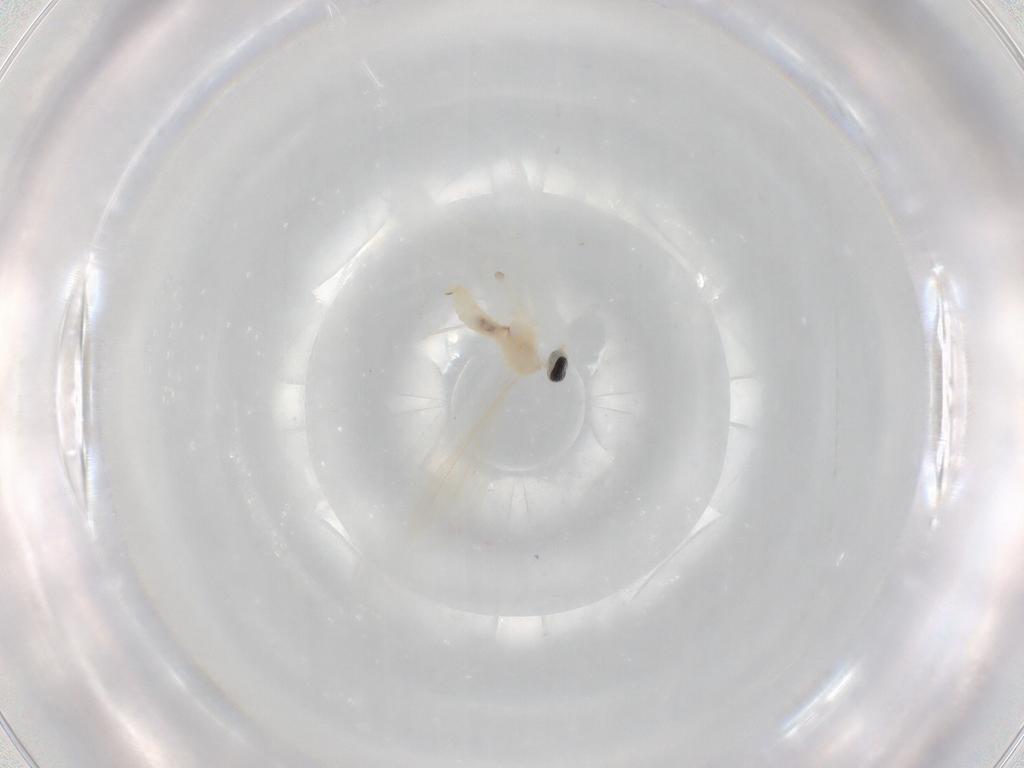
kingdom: Animalia
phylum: Arthropoda
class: Insecta
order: Diptera
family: Cecidomyiidae
